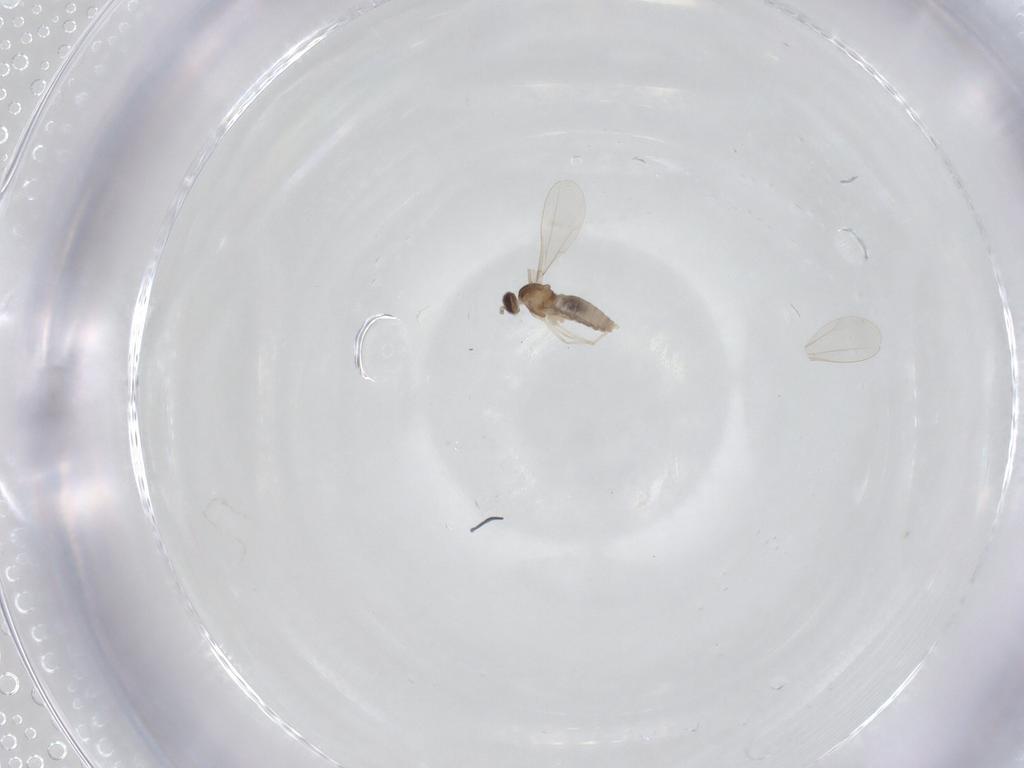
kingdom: Animalia
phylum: Arthropoda
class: Insecta
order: Diptera
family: Cecidomyiidae
